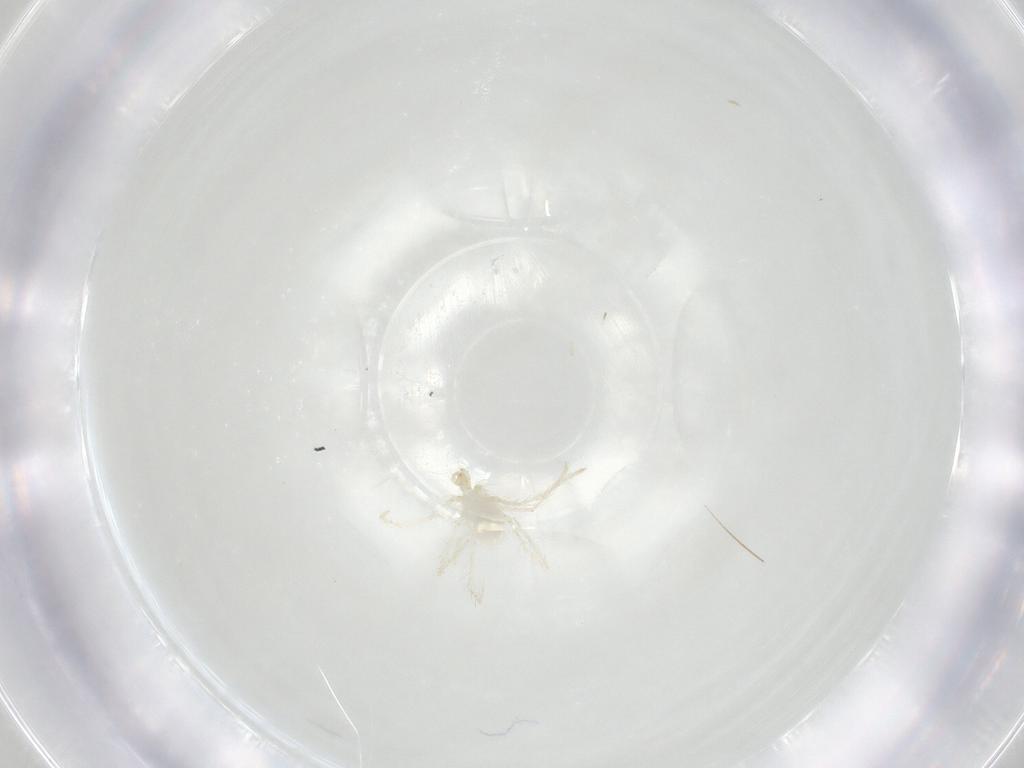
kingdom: Animalia
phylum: Arthropoda
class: Arachnida
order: Trombidiformes
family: Erythraeidae
